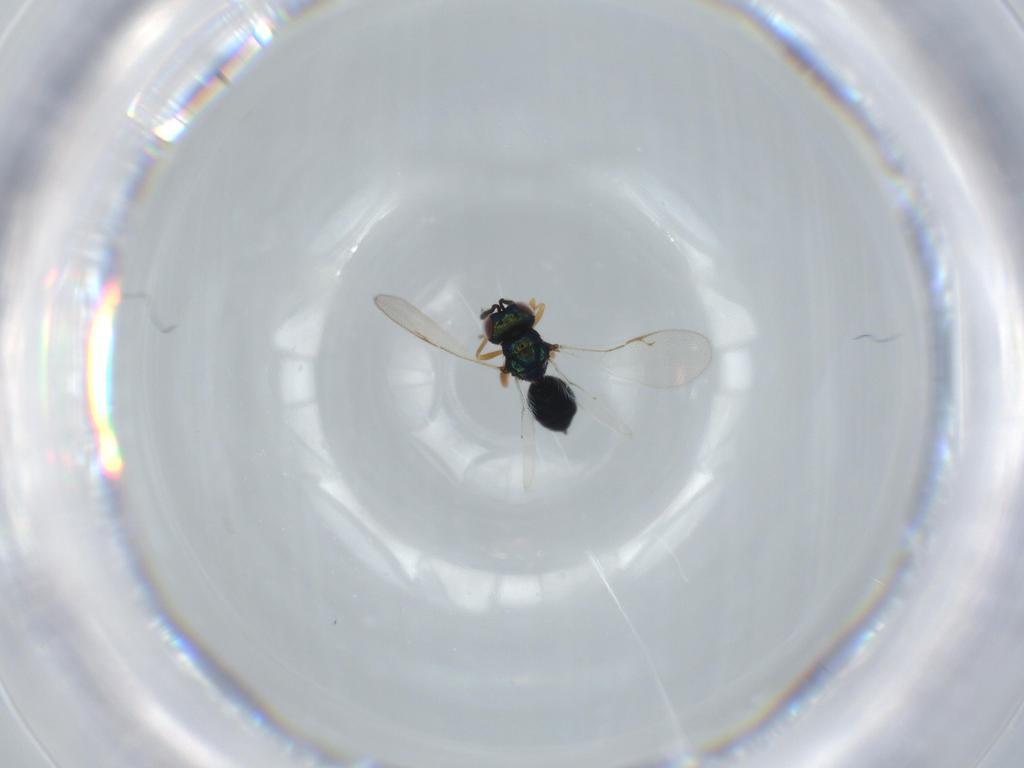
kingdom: Animalia
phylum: Arthropoda
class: Insecta
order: Hymenoptera
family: Pteromalidae
